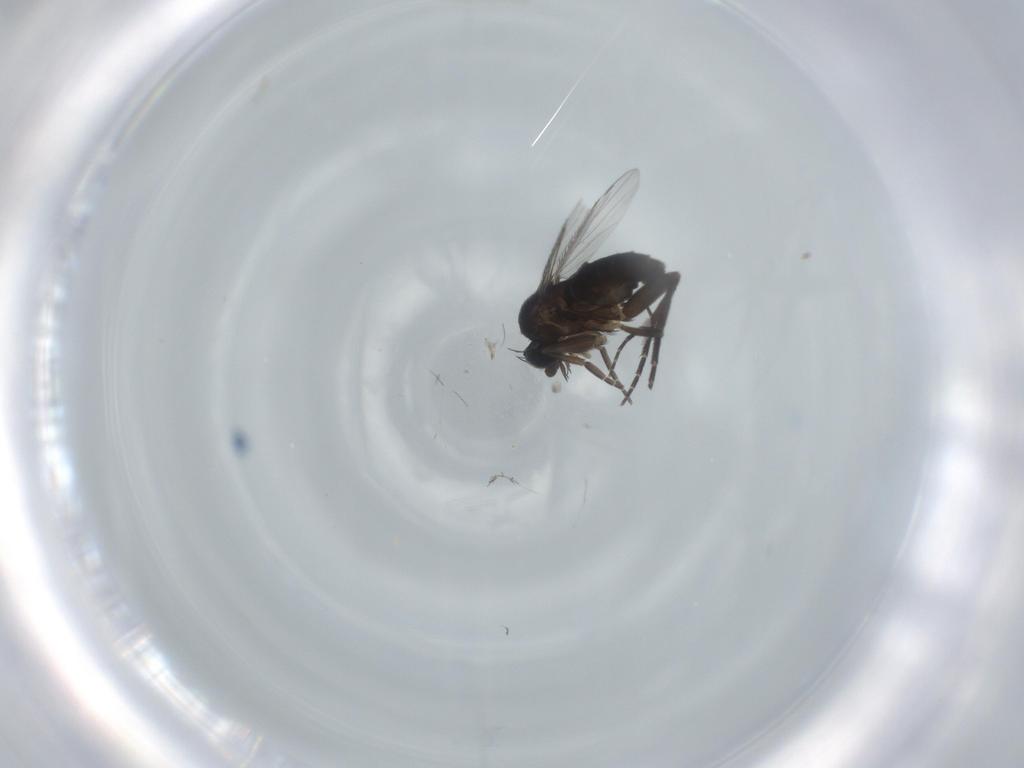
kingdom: Animalia
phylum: Arthropoda
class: Insecta
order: Diptera
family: Phoridae
